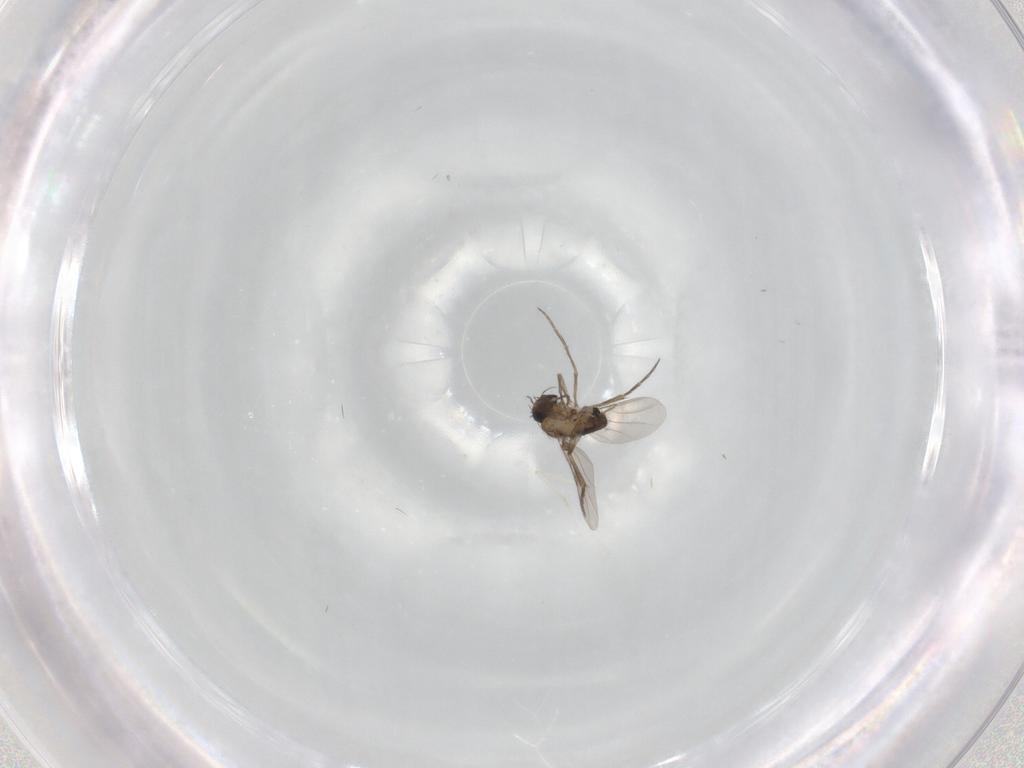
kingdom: Animalia
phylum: Arthropoda
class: Insecta
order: Diptera
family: Phoridae
